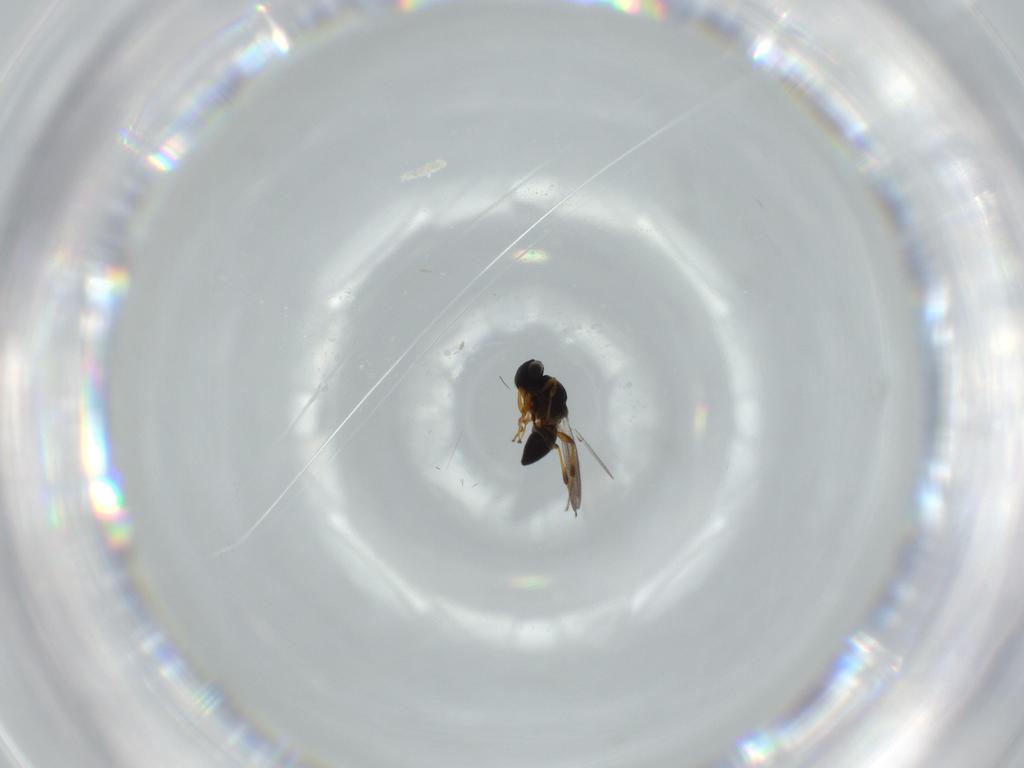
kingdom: Animalia
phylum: Arthropoda
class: Insecta
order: Hymenoptera
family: Platygastridae
